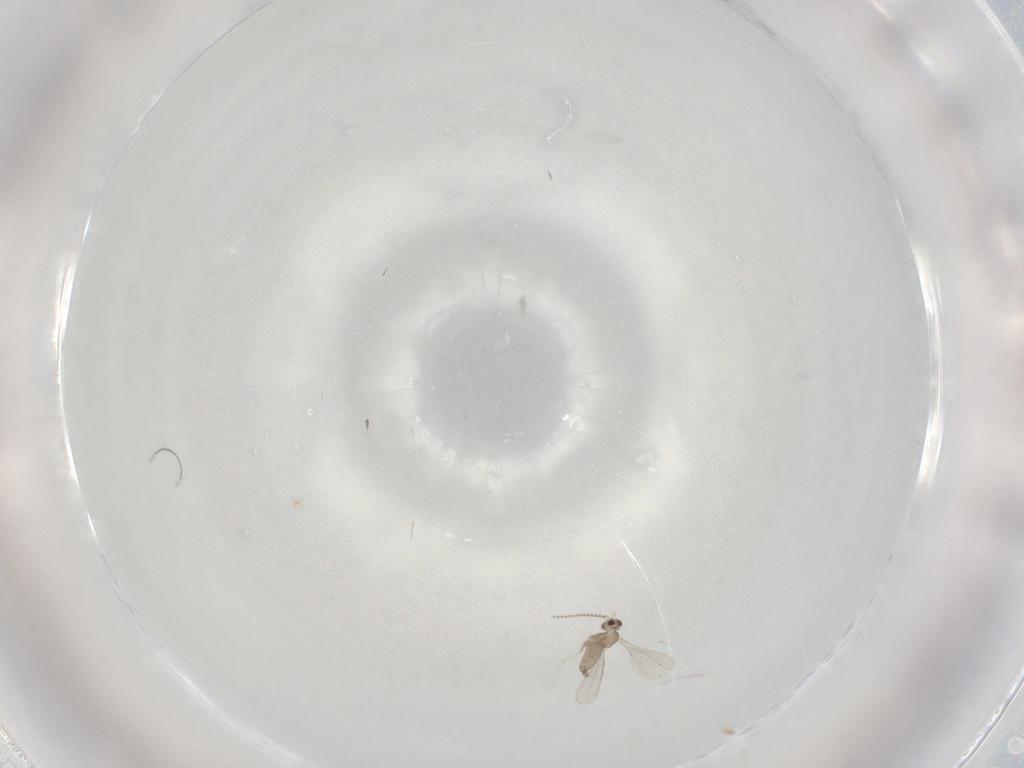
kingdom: Animalia
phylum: Arthropoda
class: Insecta
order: Diptera
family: Cecidomyiidae
